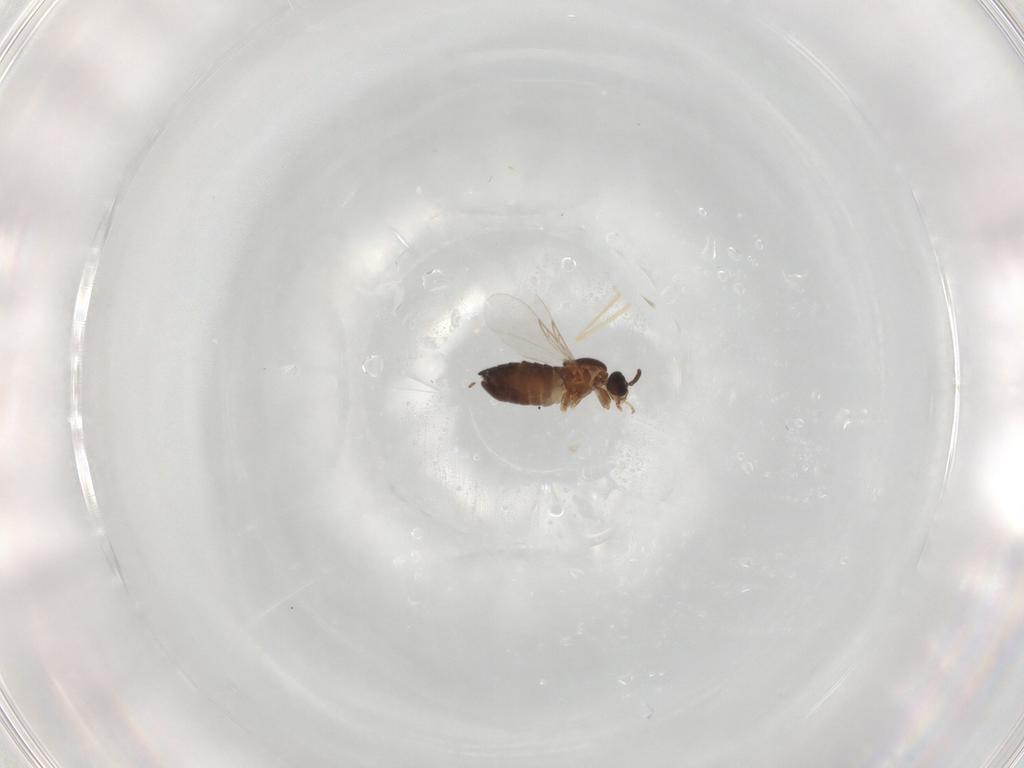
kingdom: Animalia
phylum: Arthropoda
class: Insecta
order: Diptera
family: Scatopsidae
